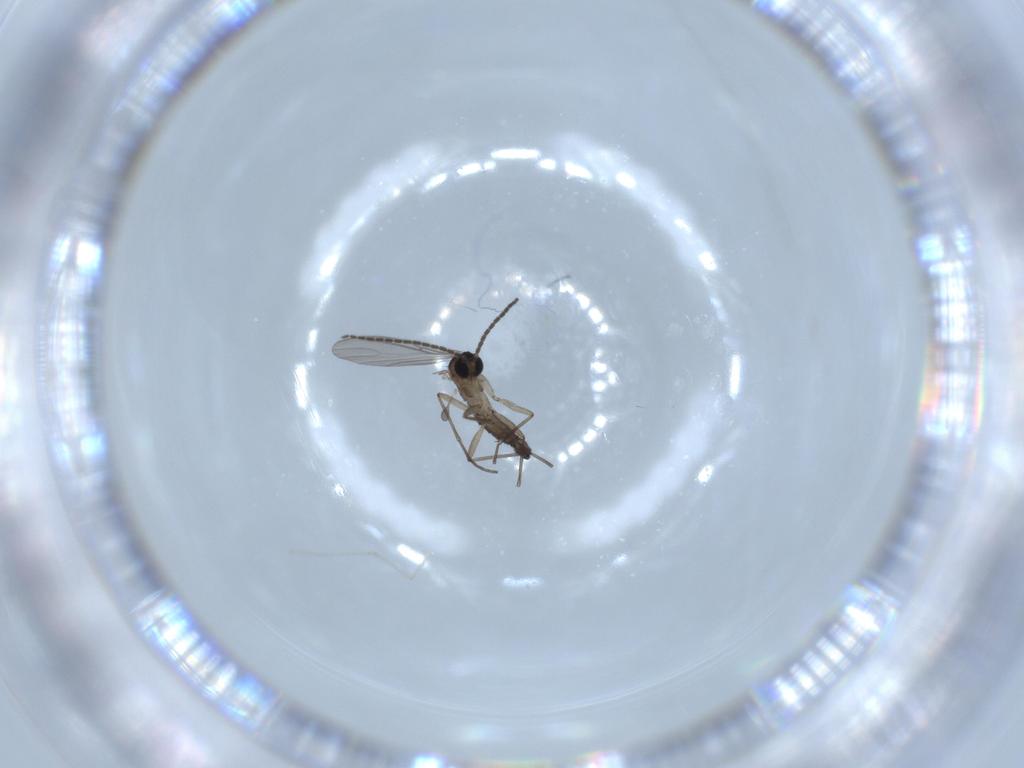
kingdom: Animalia
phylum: Arthropoda
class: Insecta
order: Diptera
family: Sciaridae
